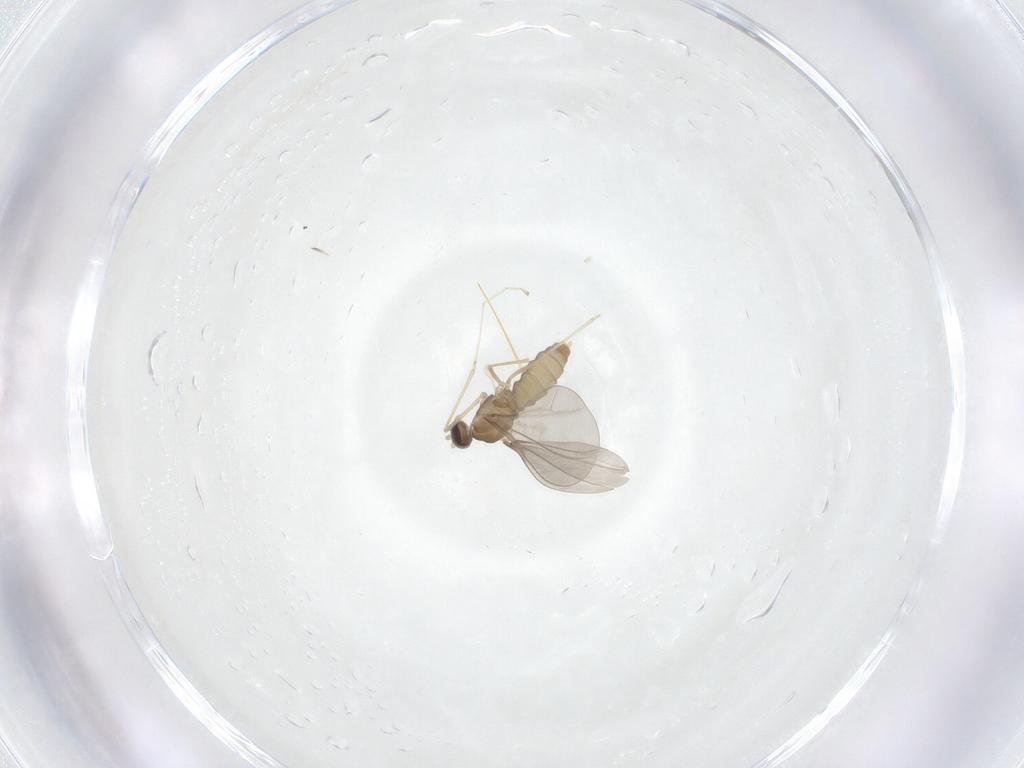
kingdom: Animalia
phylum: Arthropoda
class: Insecta
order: Diptera
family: Cecidomyiidae
